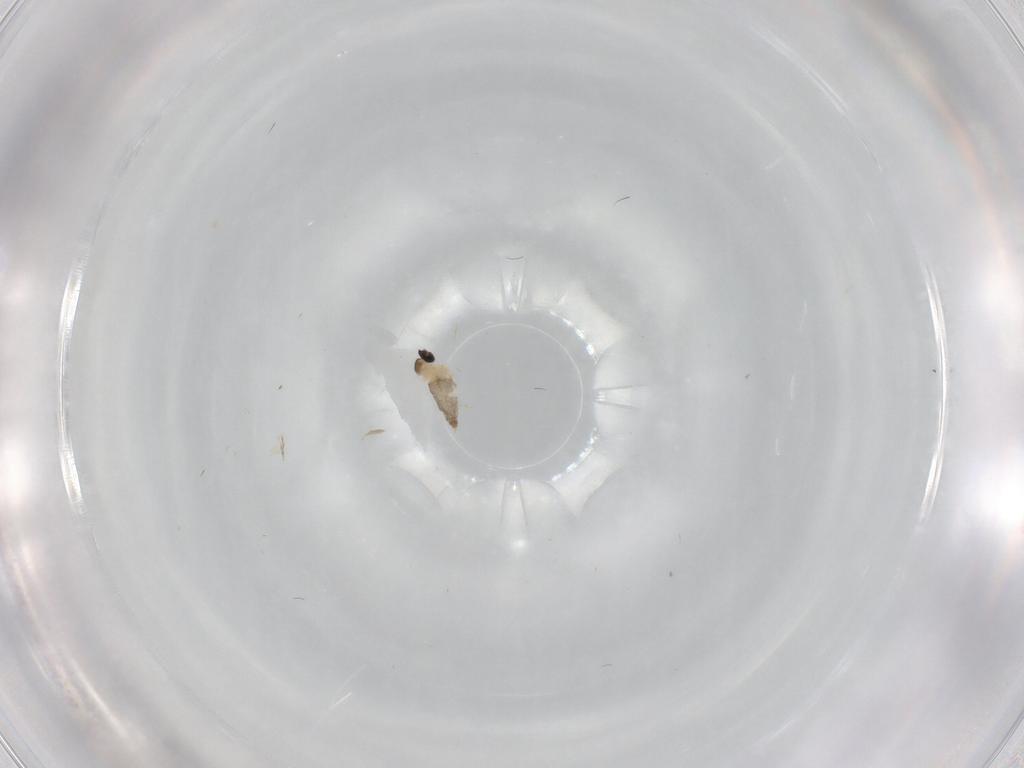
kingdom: Animalia
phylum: Arthropoda
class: Insecta
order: Diptera
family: Cecidomyiidae
